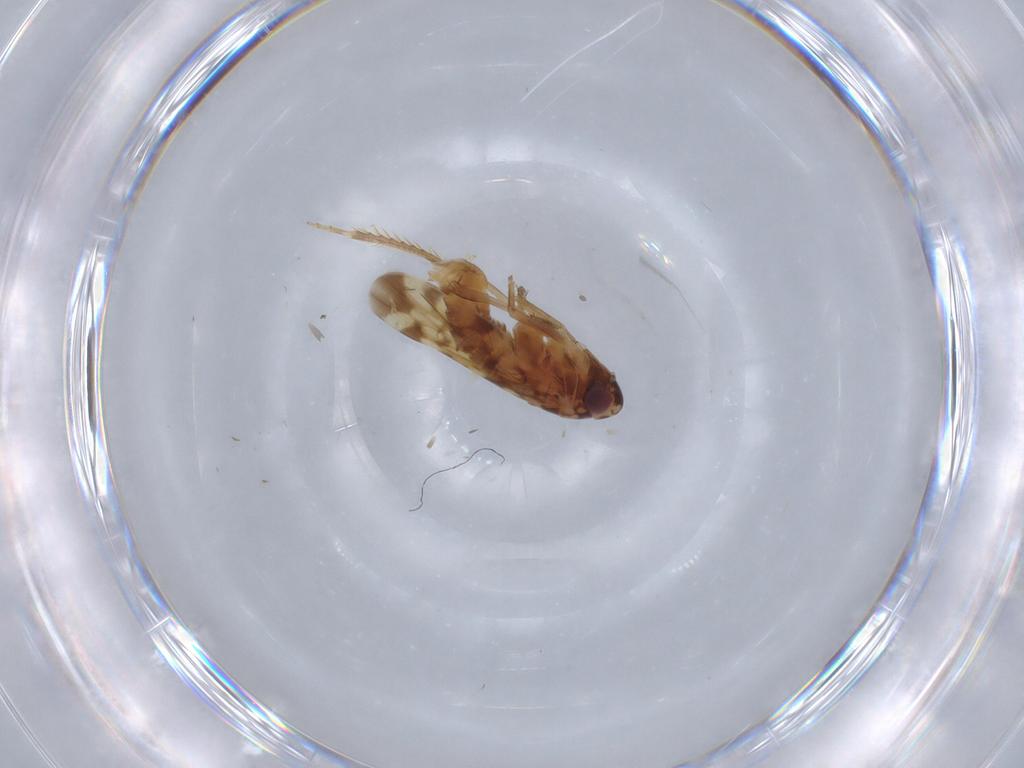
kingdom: Animalia
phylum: Arthropoda
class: Insecta
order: Hemiptera
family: Cicadellidae
